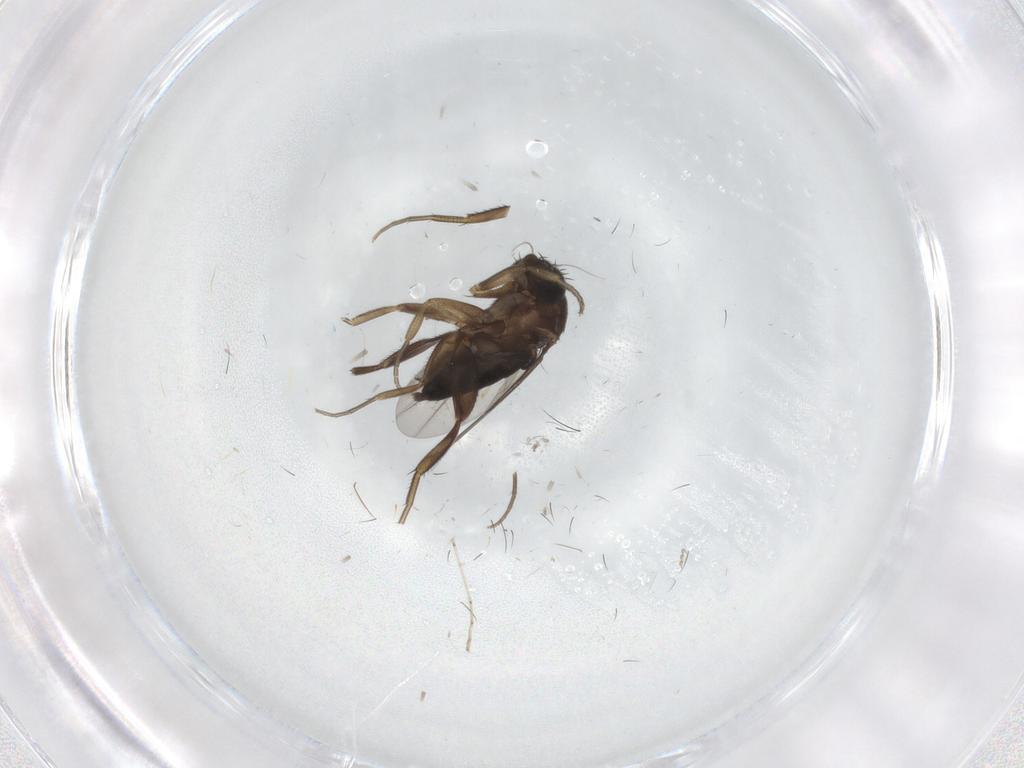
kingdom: Animalia
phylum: Arthropoda
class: Insecta
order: Diptera
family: Phoridae
